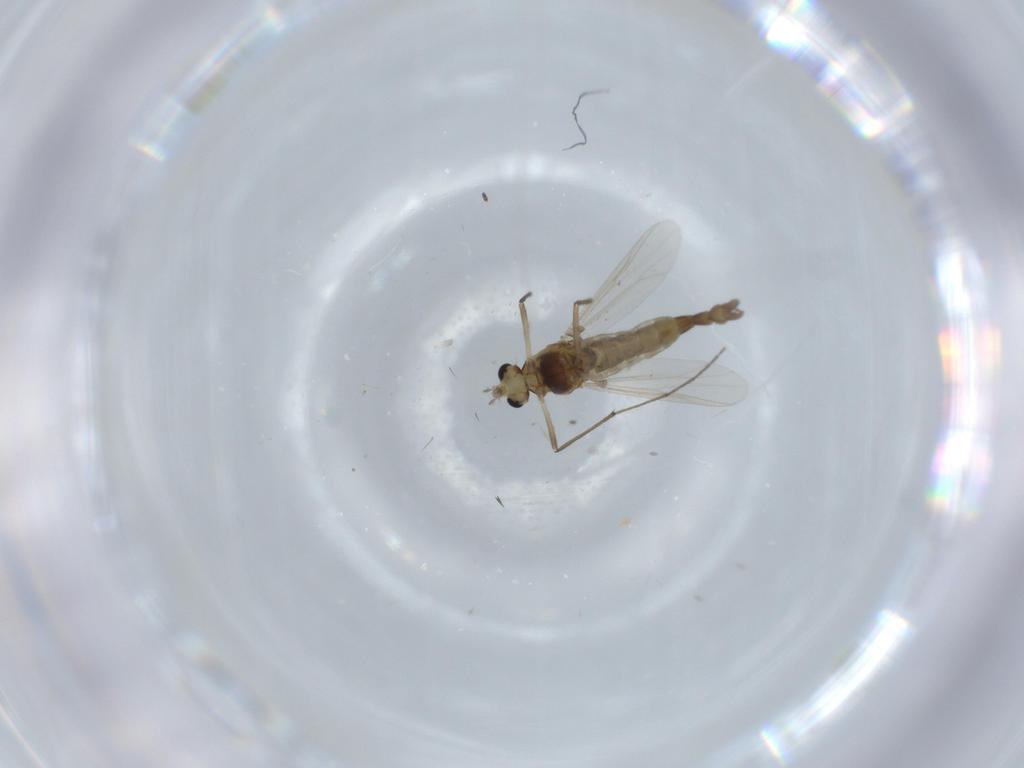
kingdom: Animalia
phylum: Arthropoda
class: Insecta
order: Diptera
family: Chironomidae
